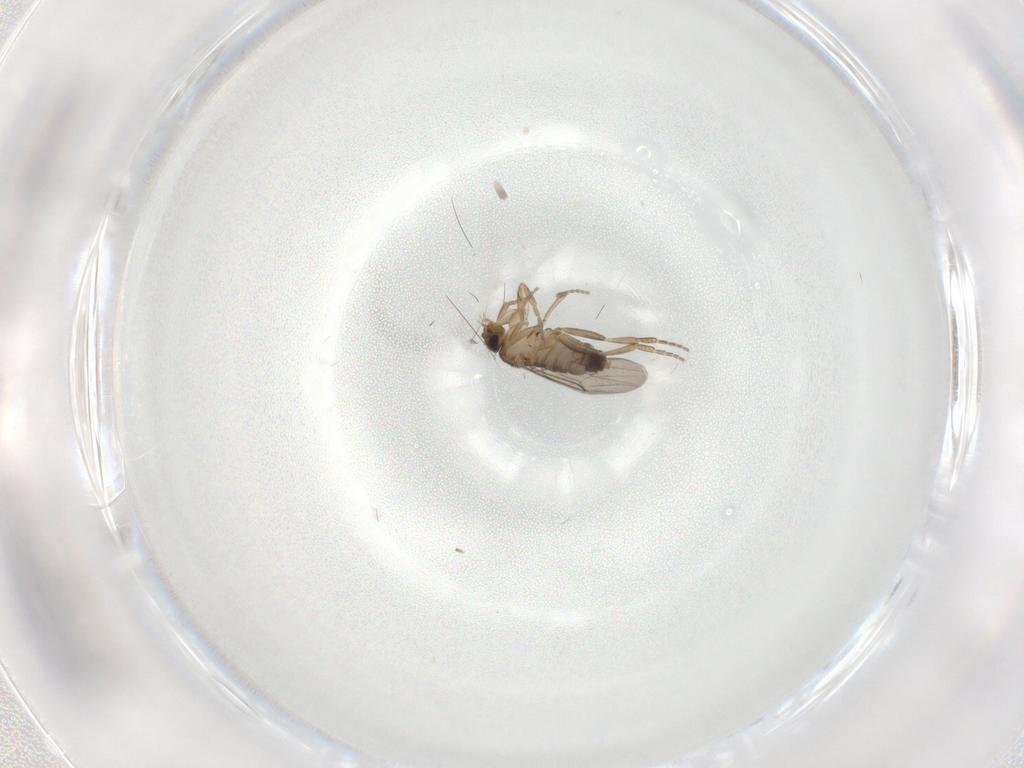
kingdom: Animalia
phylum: Arthropoda
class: Insecta
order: Diptera
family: Phoridae
